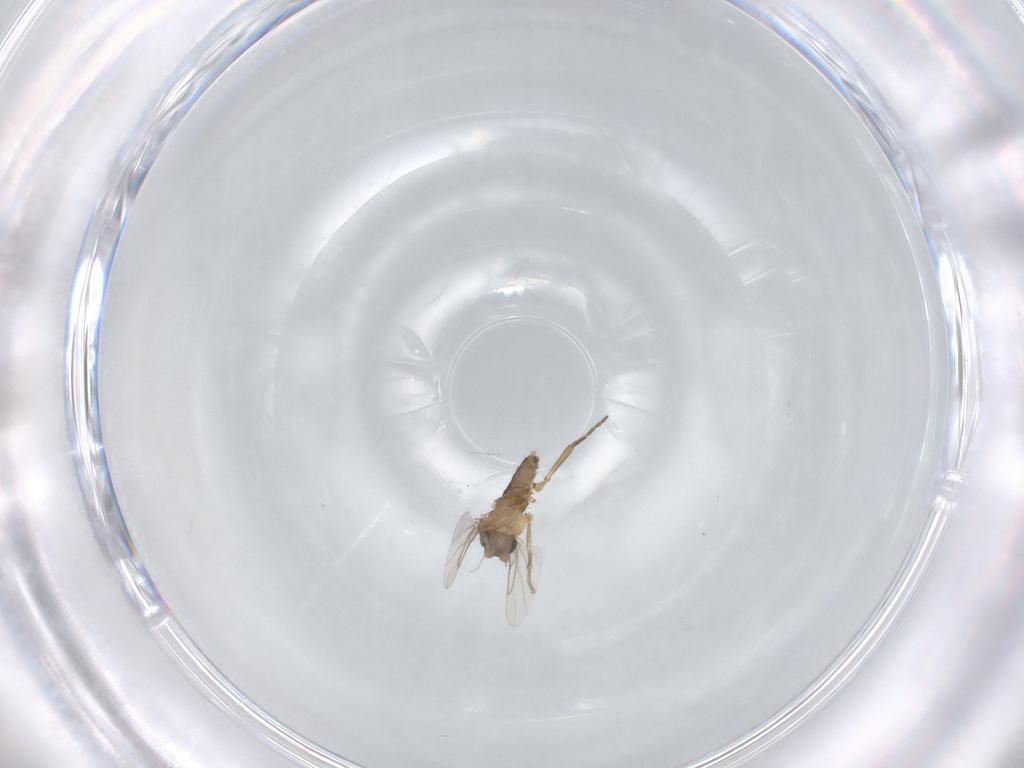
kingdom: Animalia
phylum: Arthropoda
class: Insecta
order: Diptera
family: Phoridae
